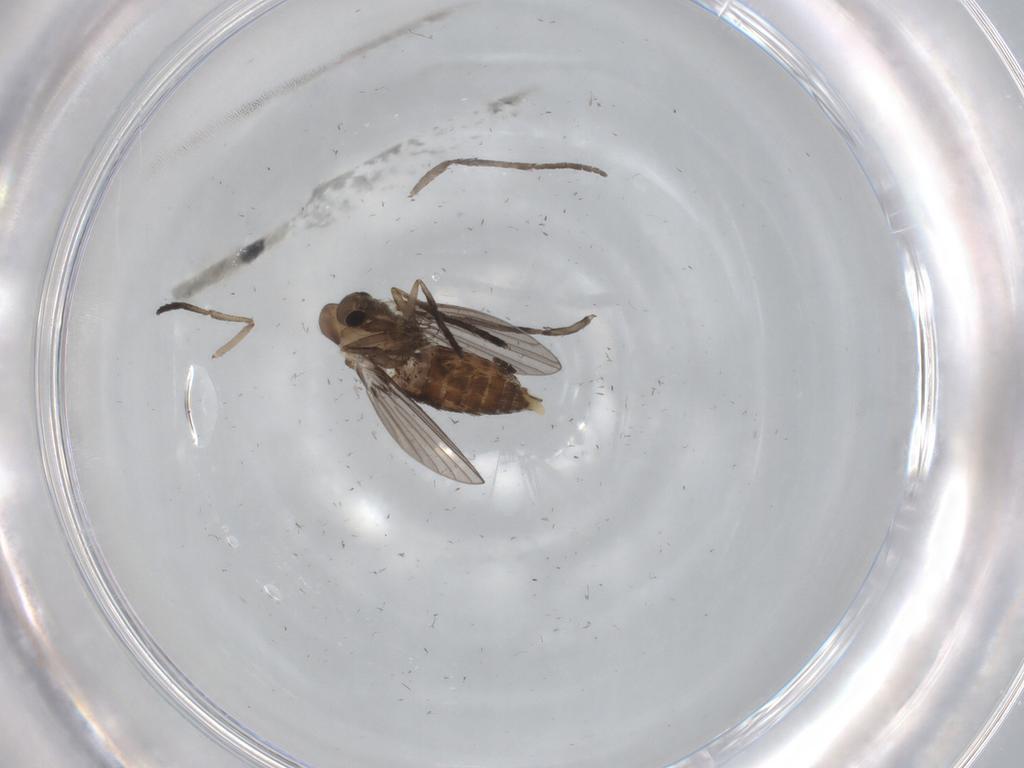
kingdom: Animalia
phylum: Arthropoda
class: Insecta
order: Diptera
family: Psychodidae
